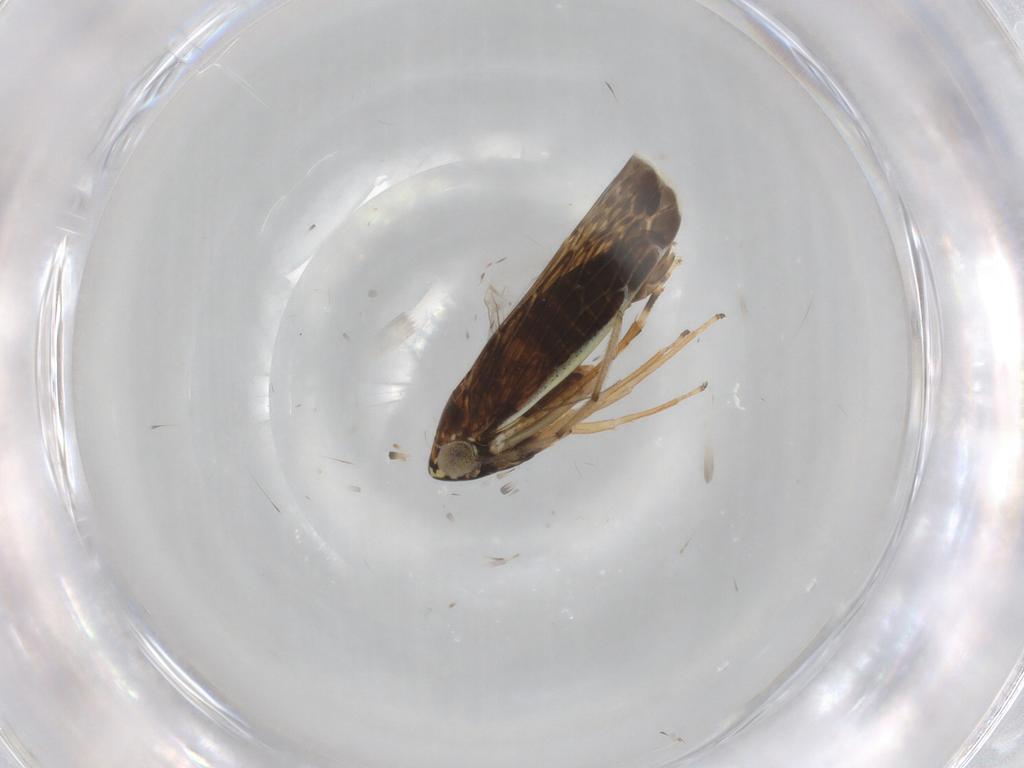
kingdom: Animalia
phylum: Arthropoda
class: Insecta
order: Hemiptera
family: Cicadellidae
